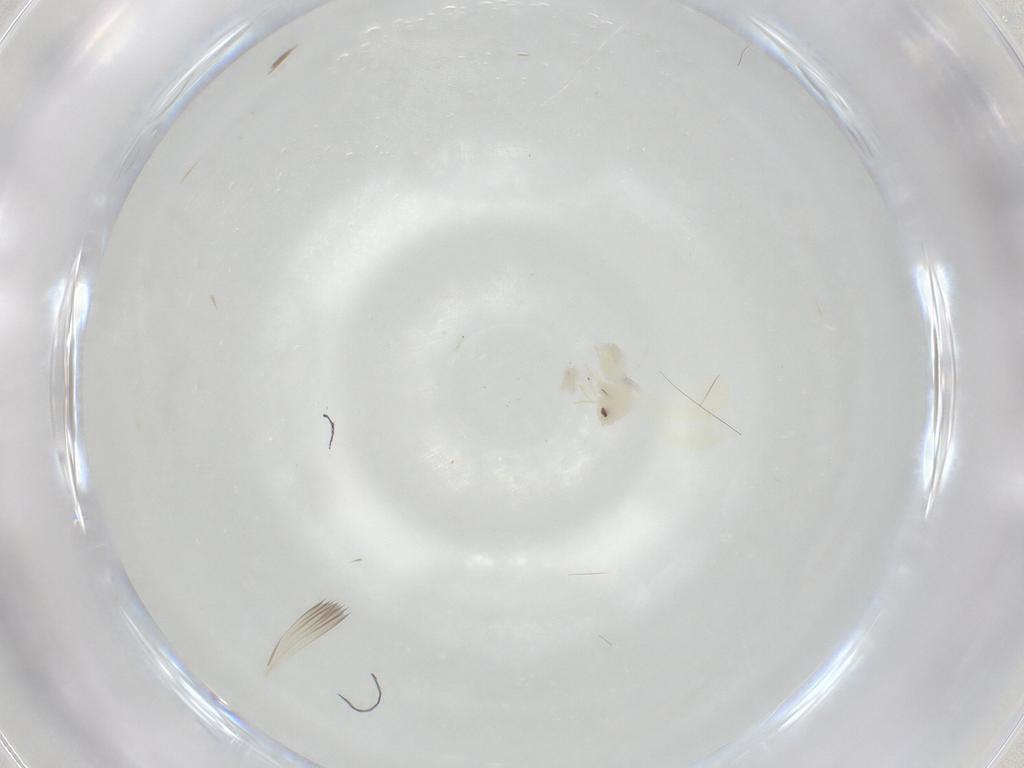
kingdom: Animalia
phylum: Arthropoda
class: Insecta
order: Hemiptera
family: Aleyrodidae
